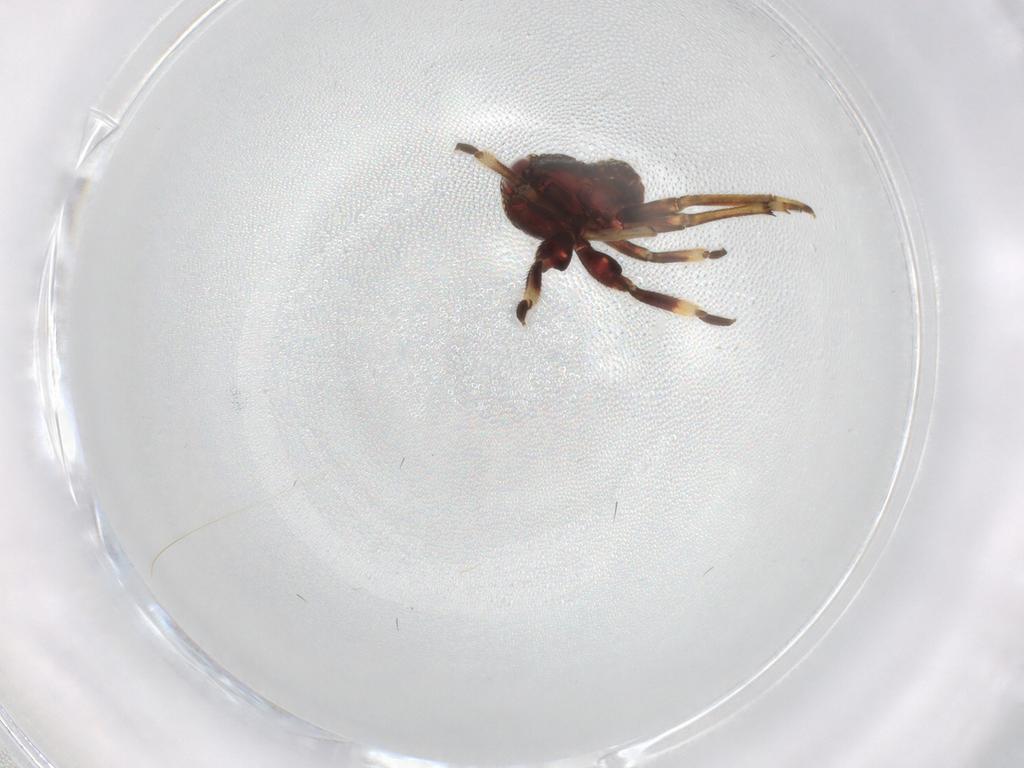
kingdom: Animalia
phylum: Arthropoda
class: Insecta
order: Hemiptera
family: Cixiidae
